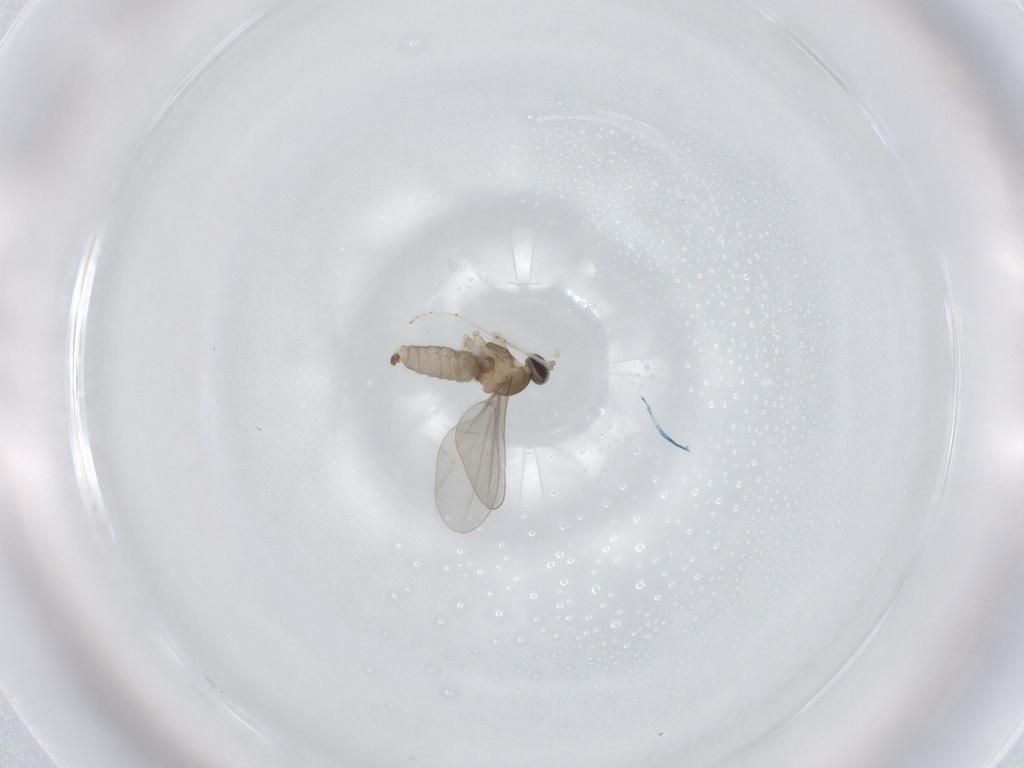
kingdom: Animalia
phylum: Arthropoda
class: Insecta
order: Diptera
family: Cecidomyiidae
